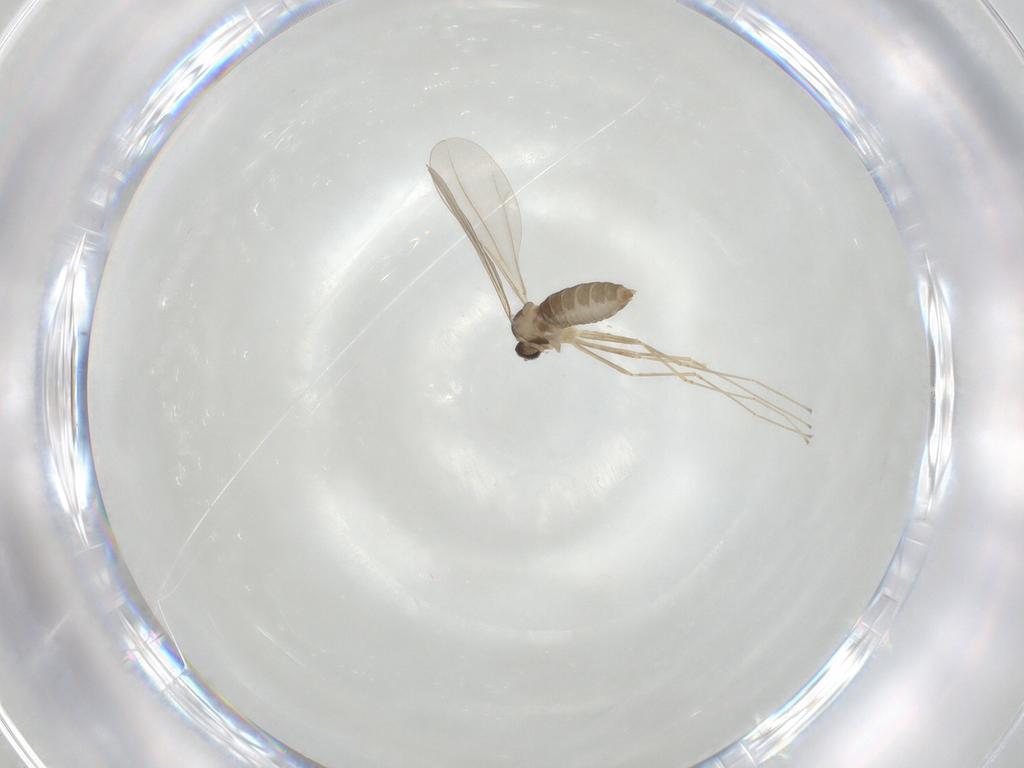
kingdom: Animalia
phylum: Arthropoda
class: Insecta
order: Diptera
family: Cecidomyiidae
